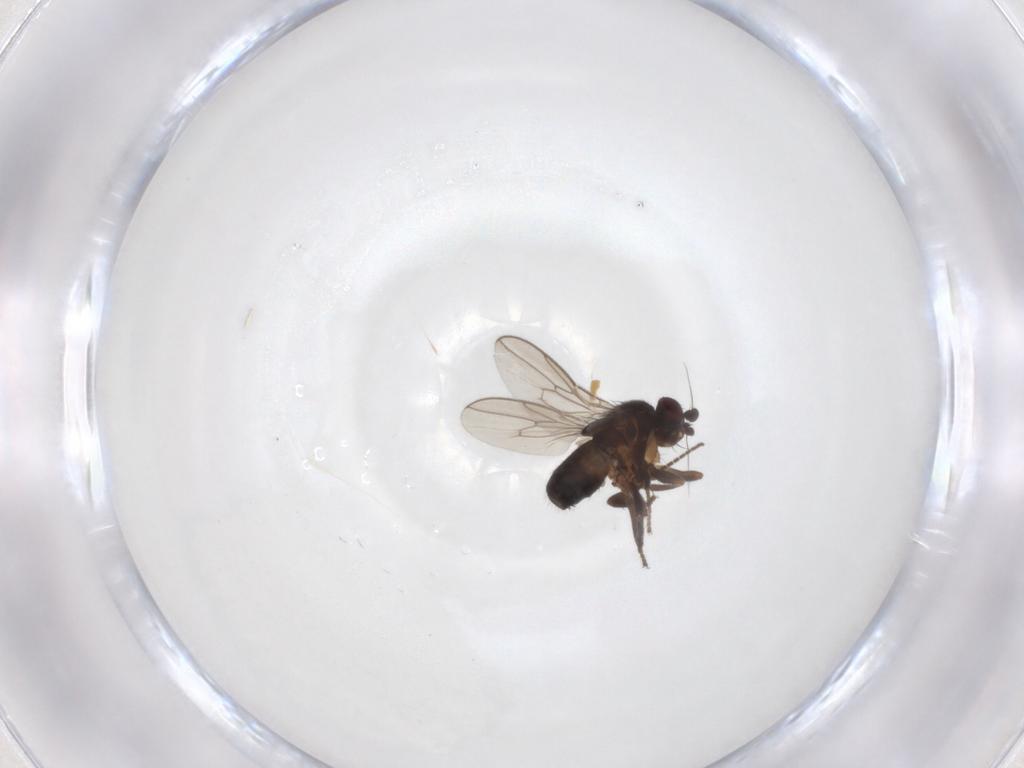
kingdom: Animalia
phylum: Arthropoda
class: Insecta
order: Diptera
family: Sphaeroceridae
